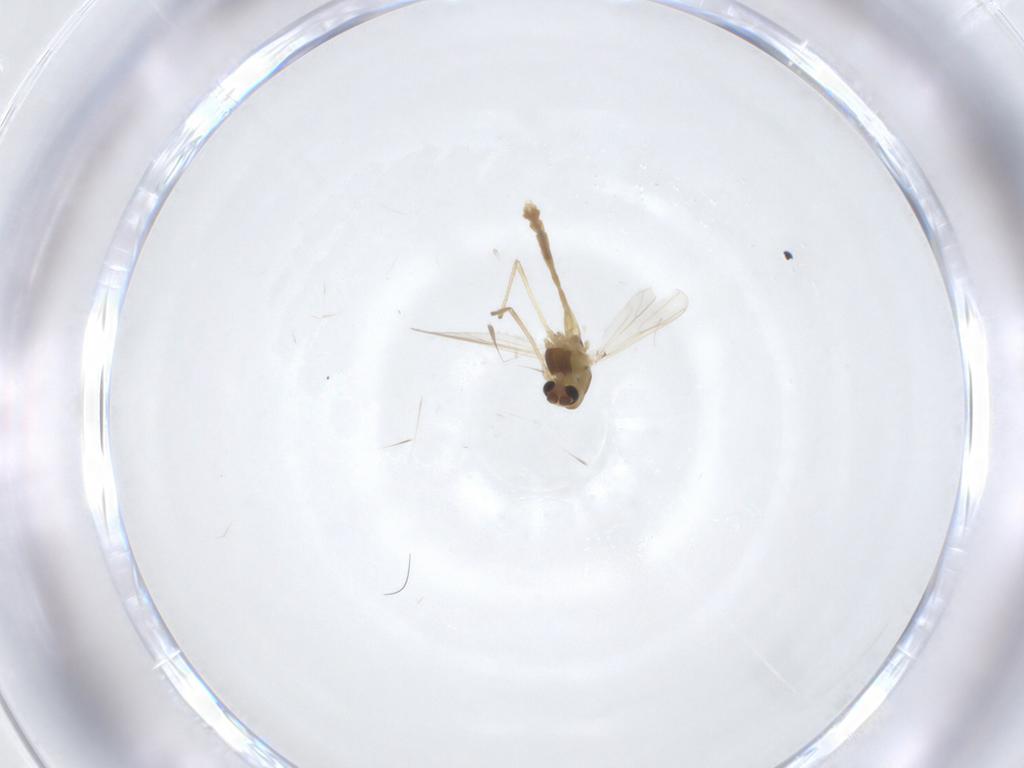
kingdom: Animalia
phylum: Arthropoda
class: Insecta
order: Diptera
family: Chironomidae
